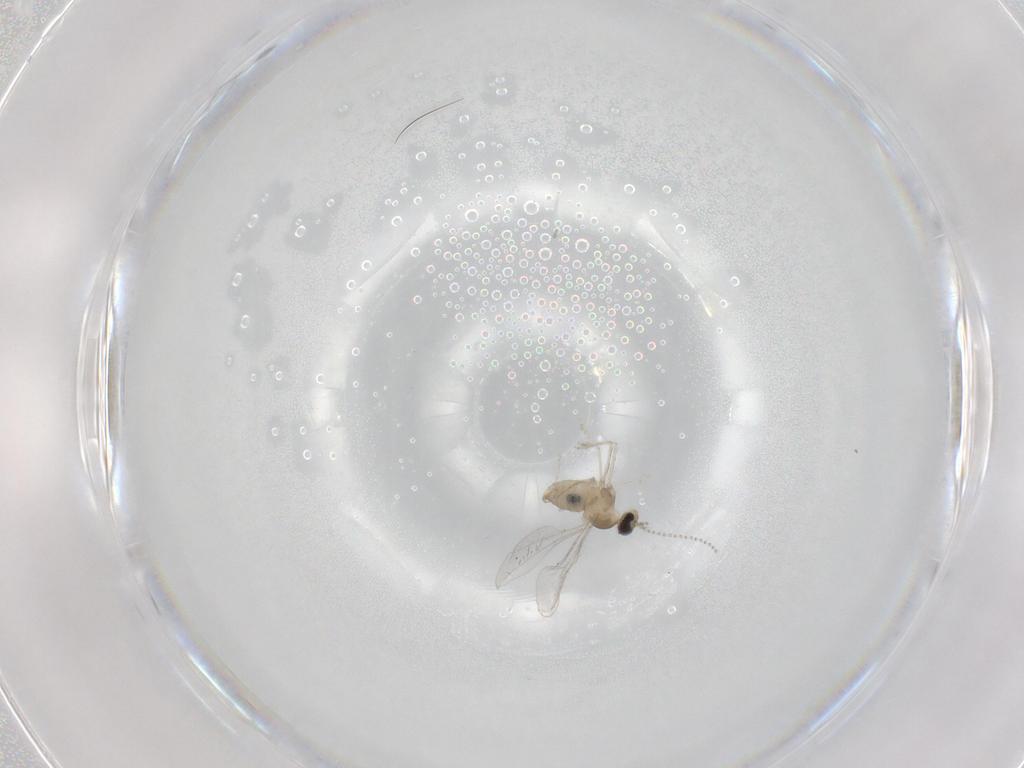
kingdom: Animalia
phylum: Arthropoda
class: Insecta
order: Diptera
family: Cecidomyiidae
